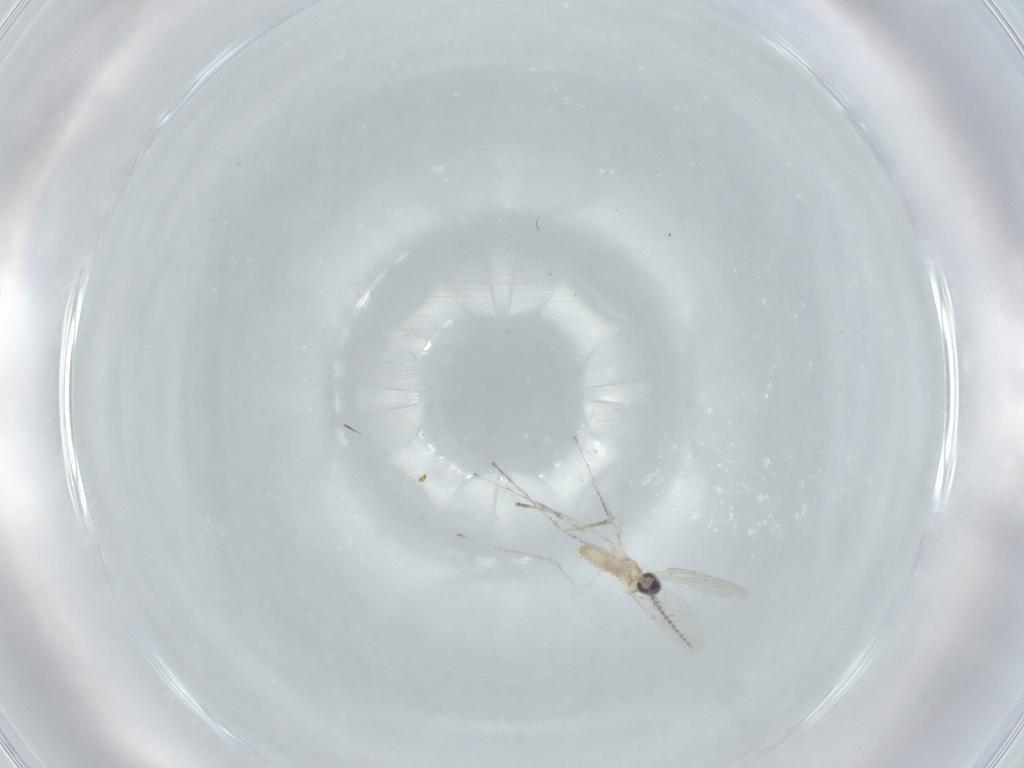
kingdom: Animalia
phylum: Arthropoda
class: Insecta
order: Diptera
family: Cecidomyiidae
